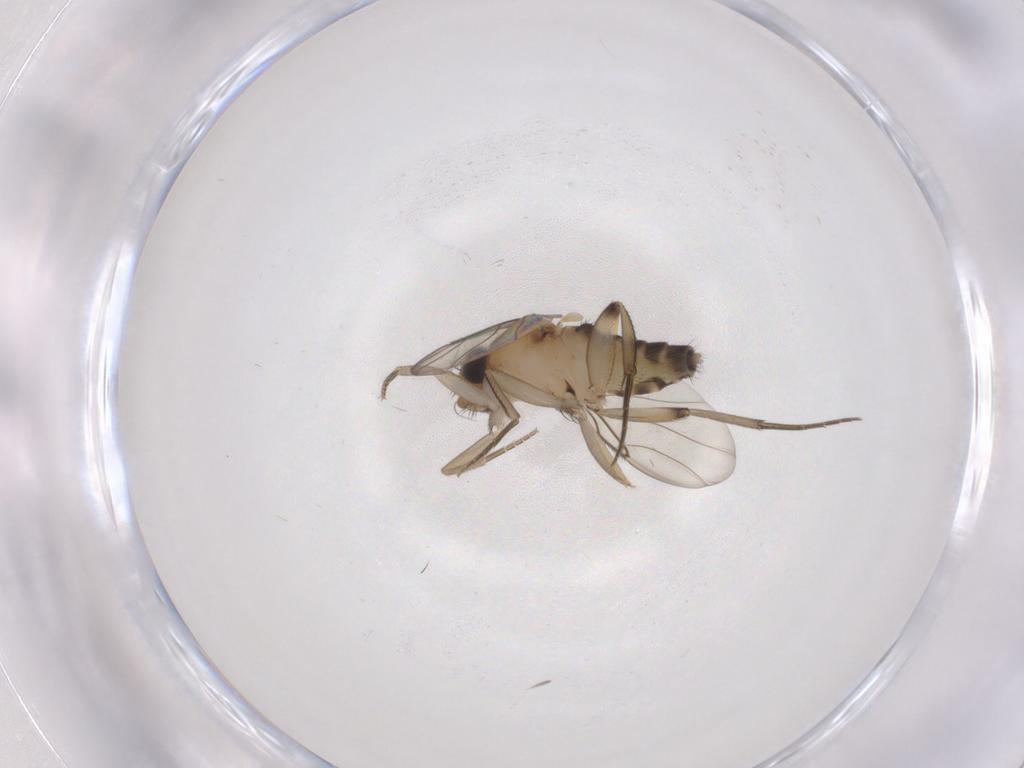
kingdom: Animalia
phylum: Arthropoda
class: Insecta
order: Diptera
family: Phoridae
